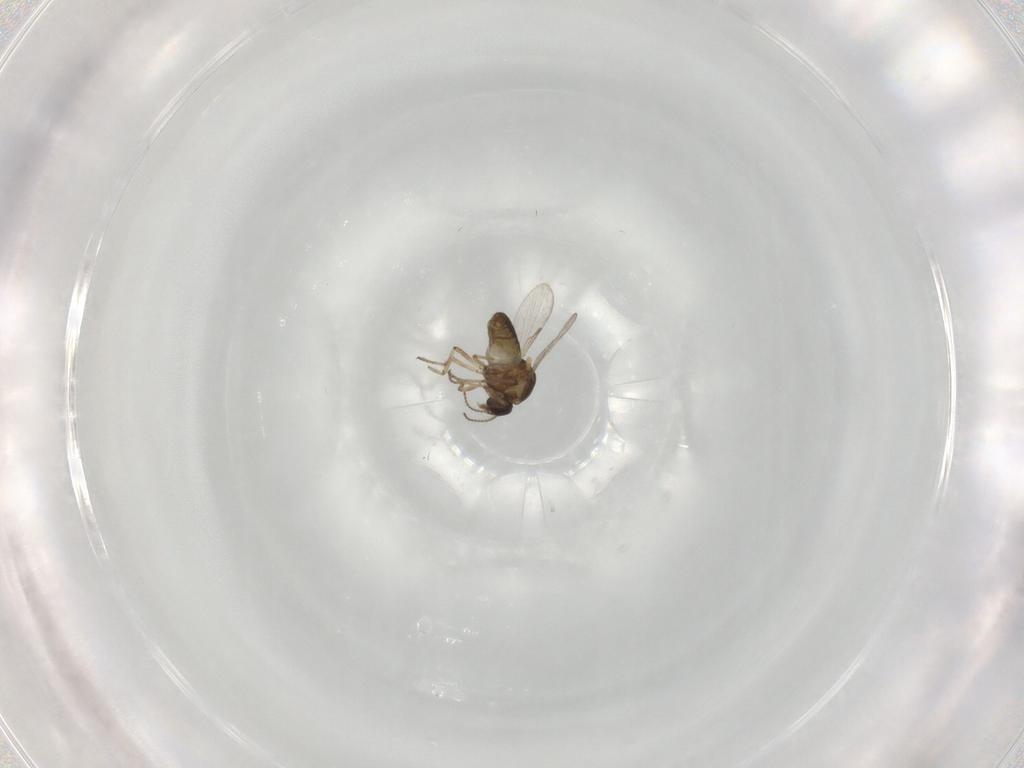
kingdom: Animalia
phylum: Arthropoda
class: Insecta
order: Diptera
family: Ceratopogonidae
